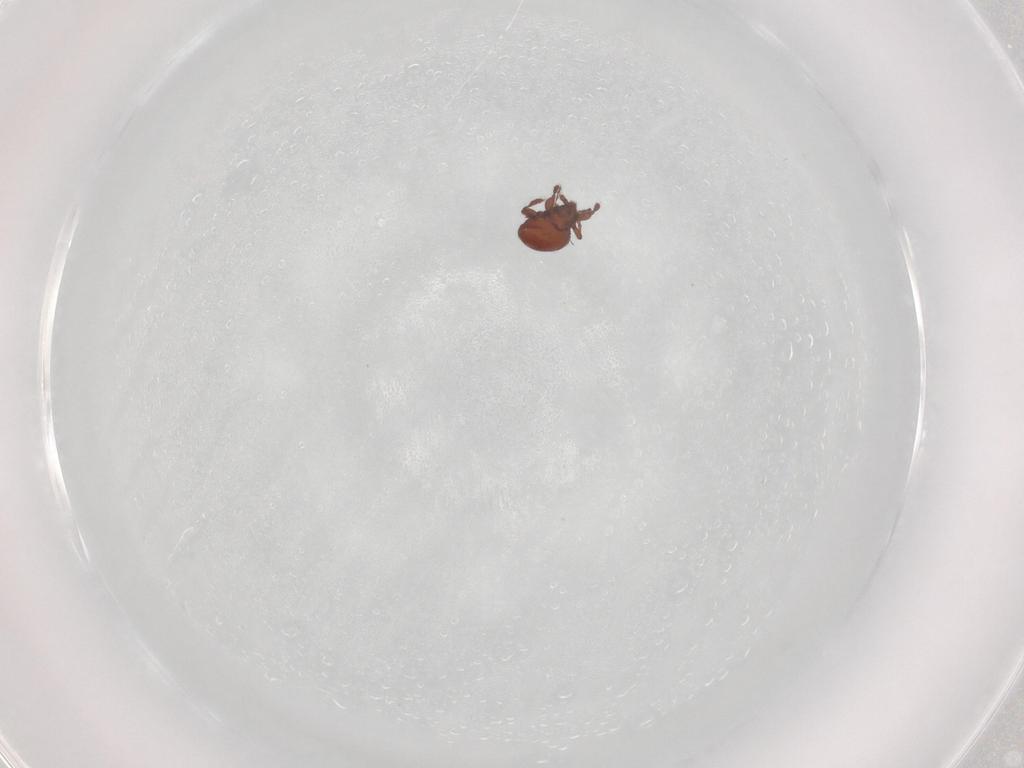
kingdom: Animalia
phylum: Arthropoda
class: Arachnida
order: Sarcoptiformes
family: Eremaeidae
